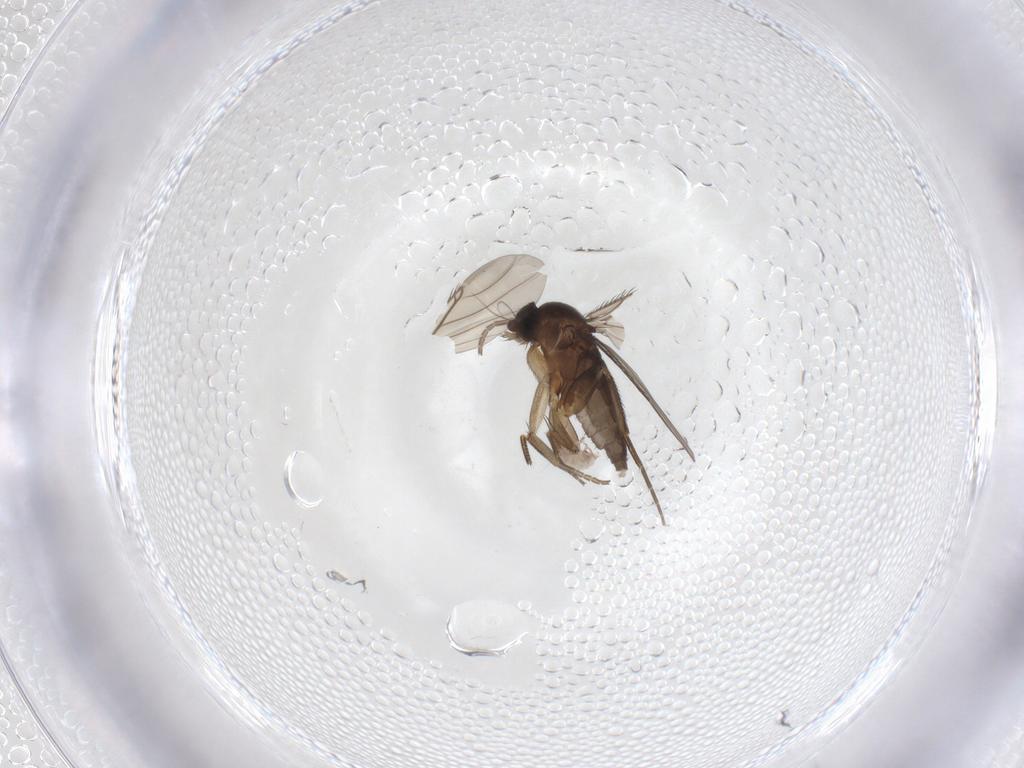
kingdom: Animalia
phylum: Arthropoda
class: Insecta
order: Diptera
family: Phoridae
